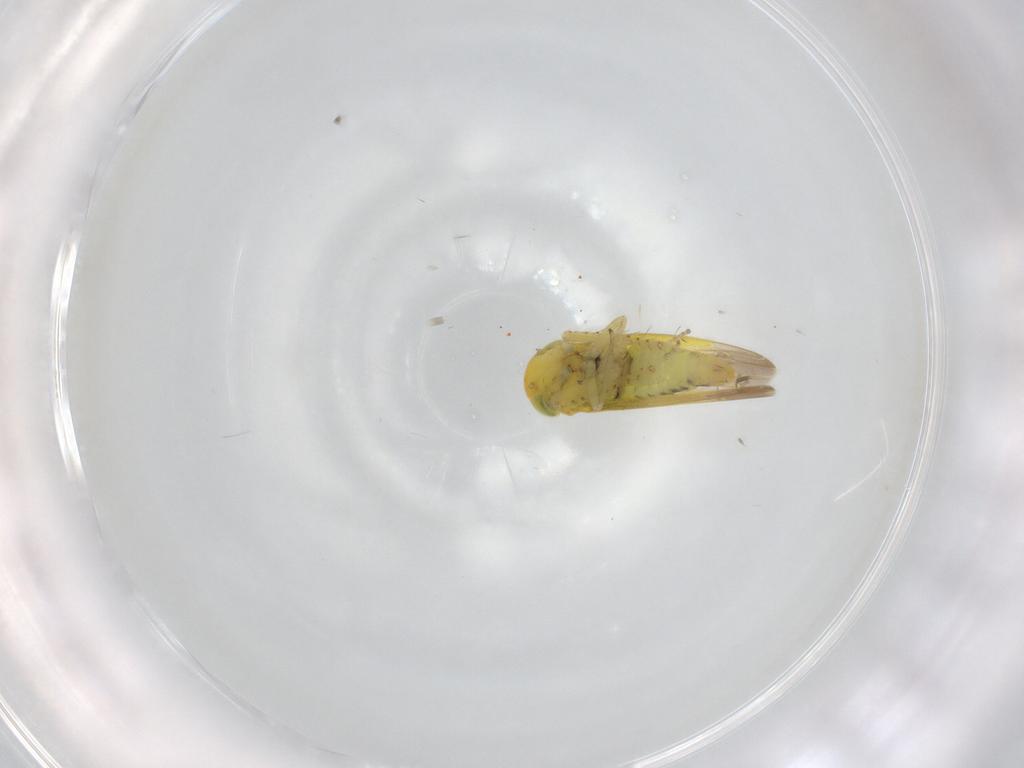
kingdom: Animalia
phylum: Arthropoda
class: Insecta
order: Hemiptera
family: Cicadellidae
